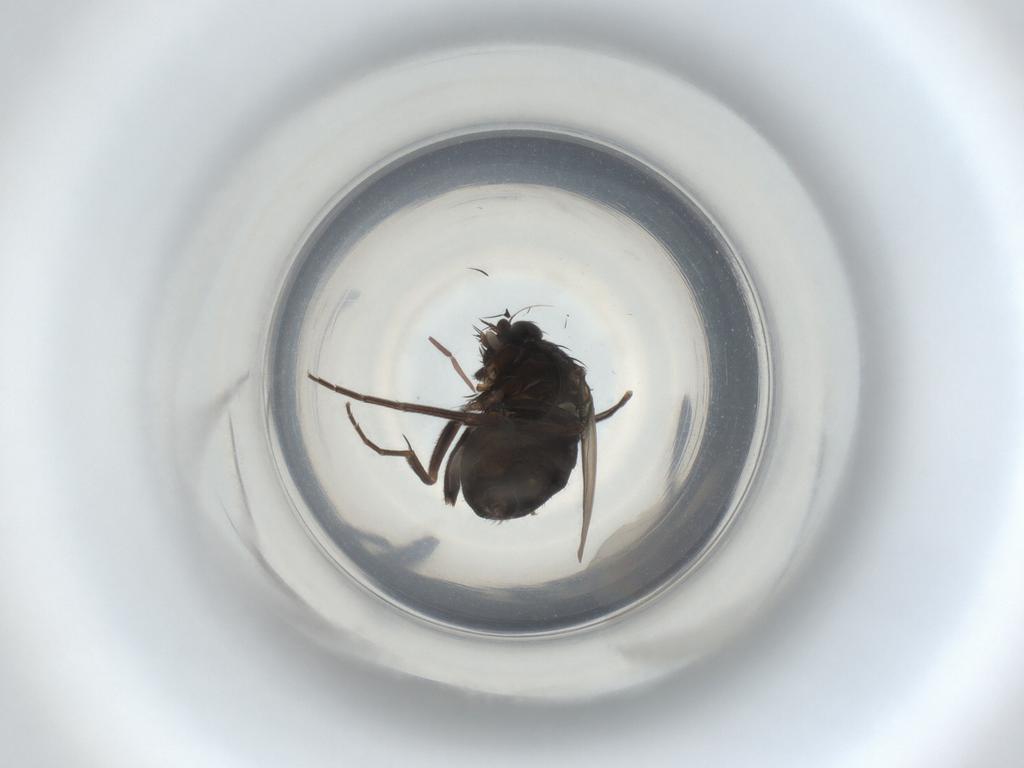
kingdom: Animalia
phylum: Arthropoda
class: Insecta
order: Diptera
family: Phoridae
